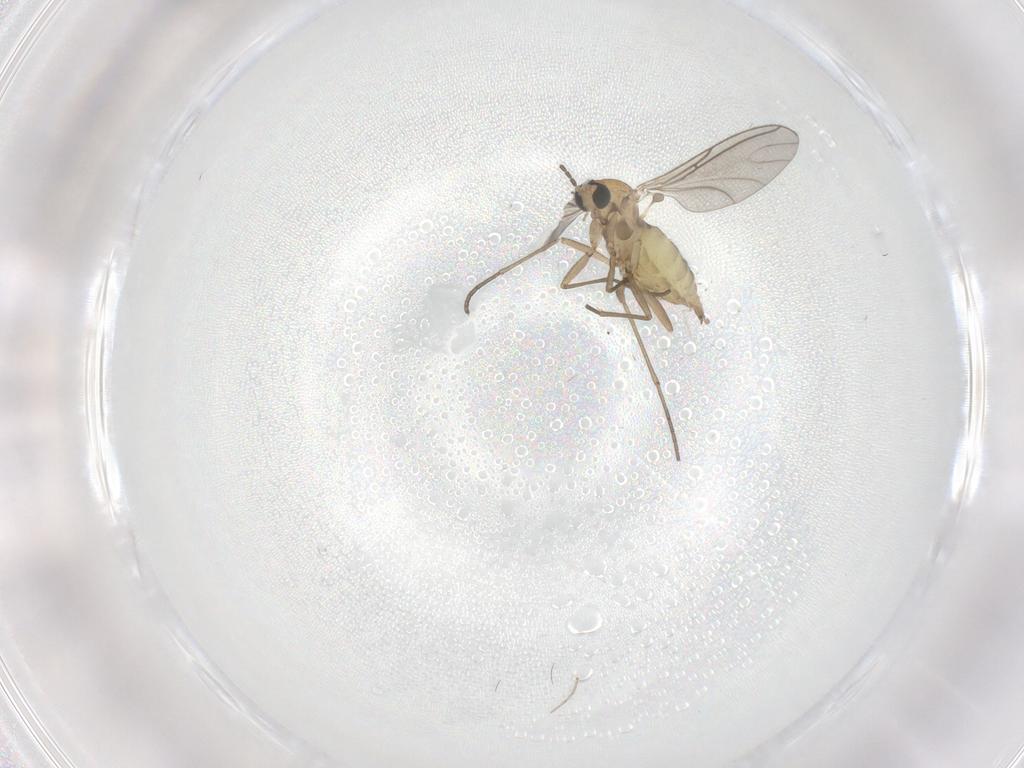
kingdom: Animalia
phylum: Arthropoda
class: Insecta
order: Diptera
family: Chironomidae
